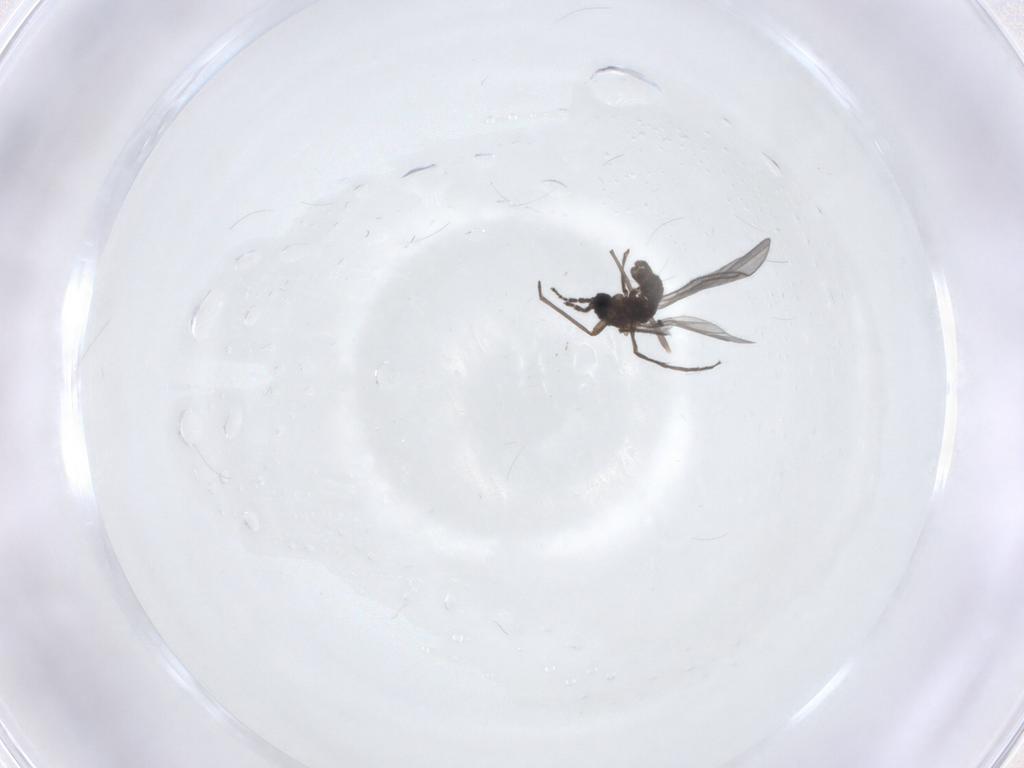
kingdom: Animalia
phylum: Arthropoda
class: Insecta
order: Diptera
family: Sciaridae
